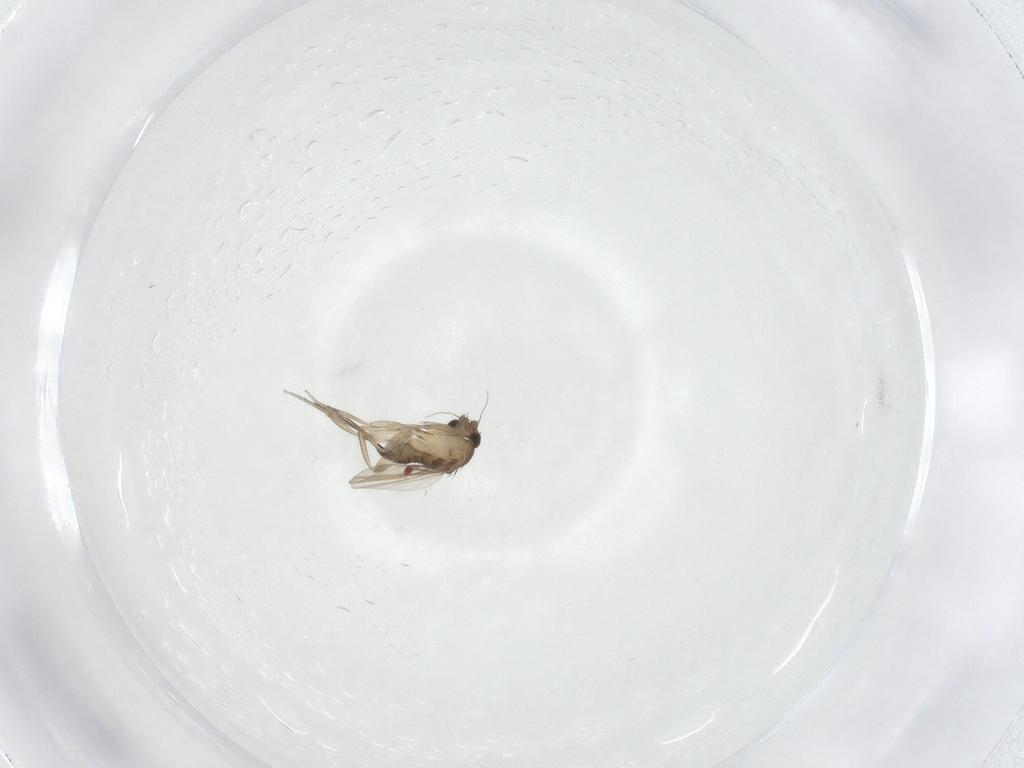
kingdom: Animalia
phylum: Arthropoda
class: Insecta
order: Diptera
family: Phoridae
